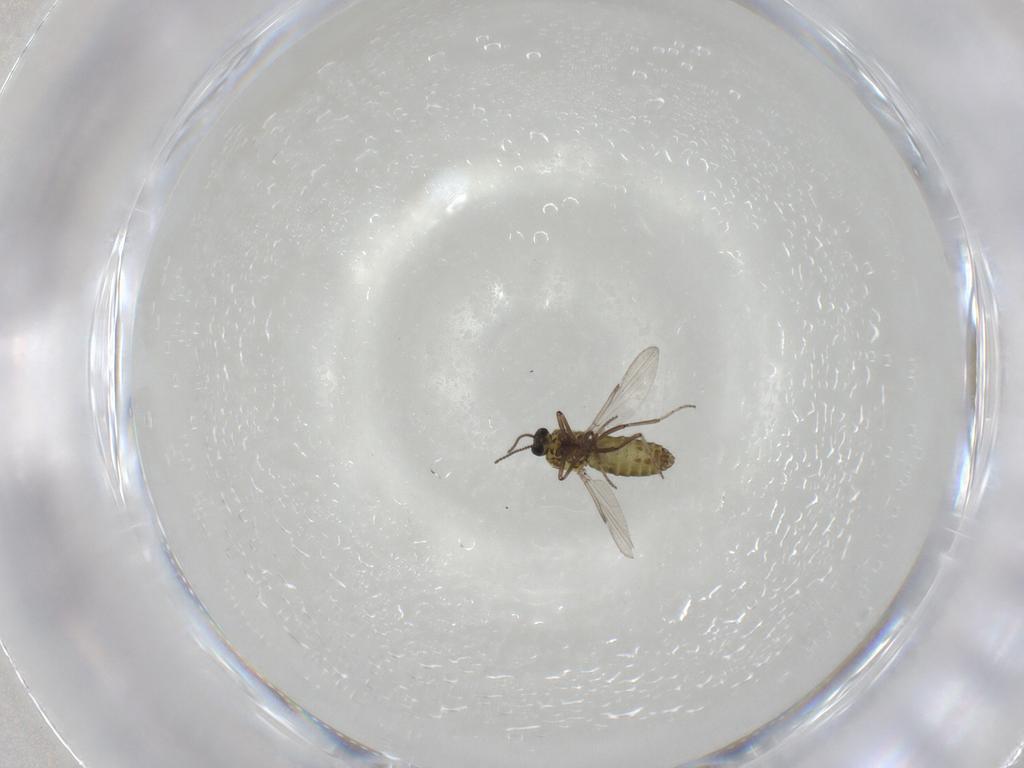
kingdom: Animalia
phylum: Arthropoda
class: Insecta
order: Diptera
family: Ceratopogonidae
